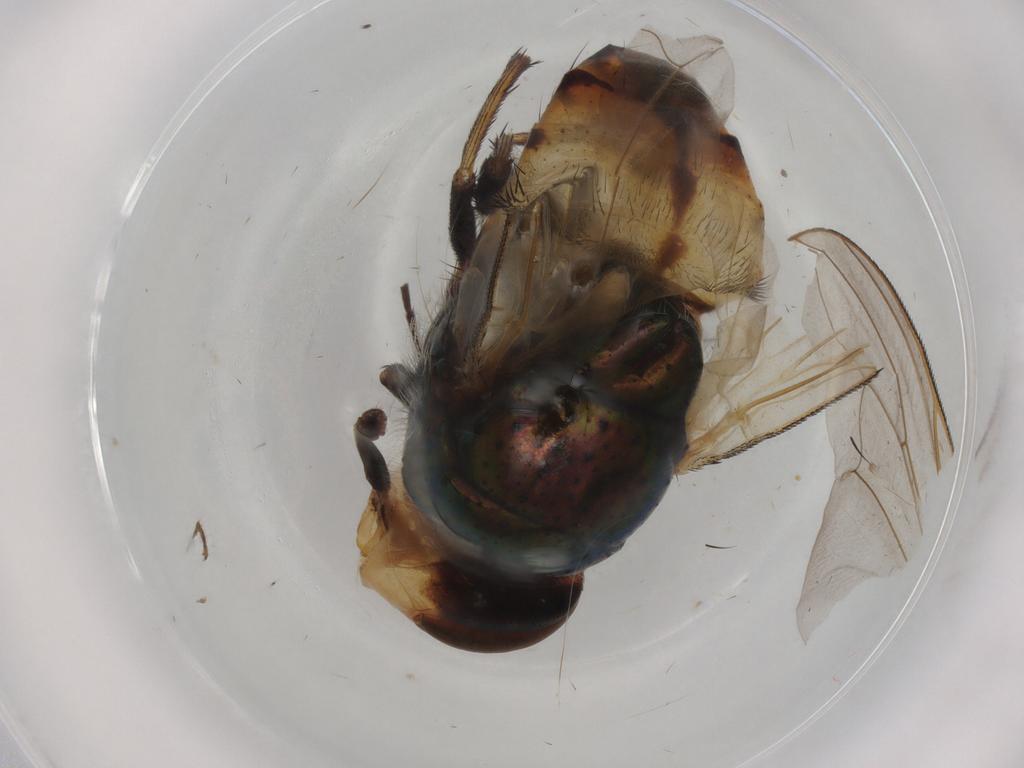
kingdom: Animalia
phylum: Arthropoda
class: Insecta
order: Diptera
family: Calliphoridae
